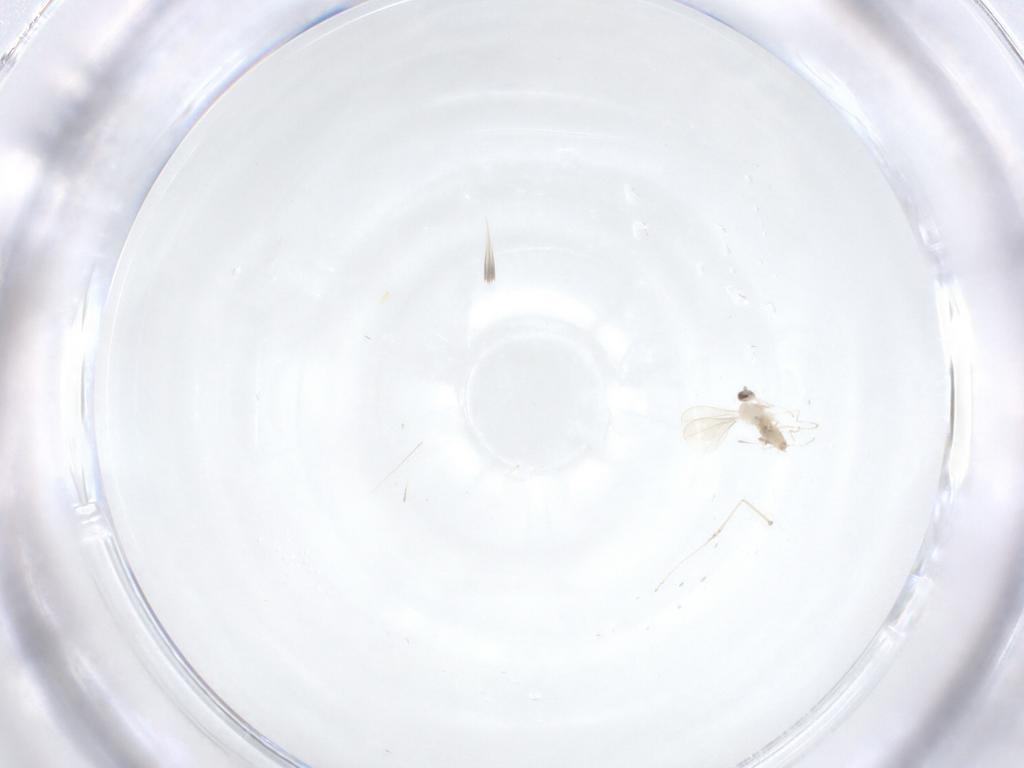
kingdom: Animalia
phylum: Arthropoda
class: Insecta
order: Diptera
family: Cecidomyiidae
